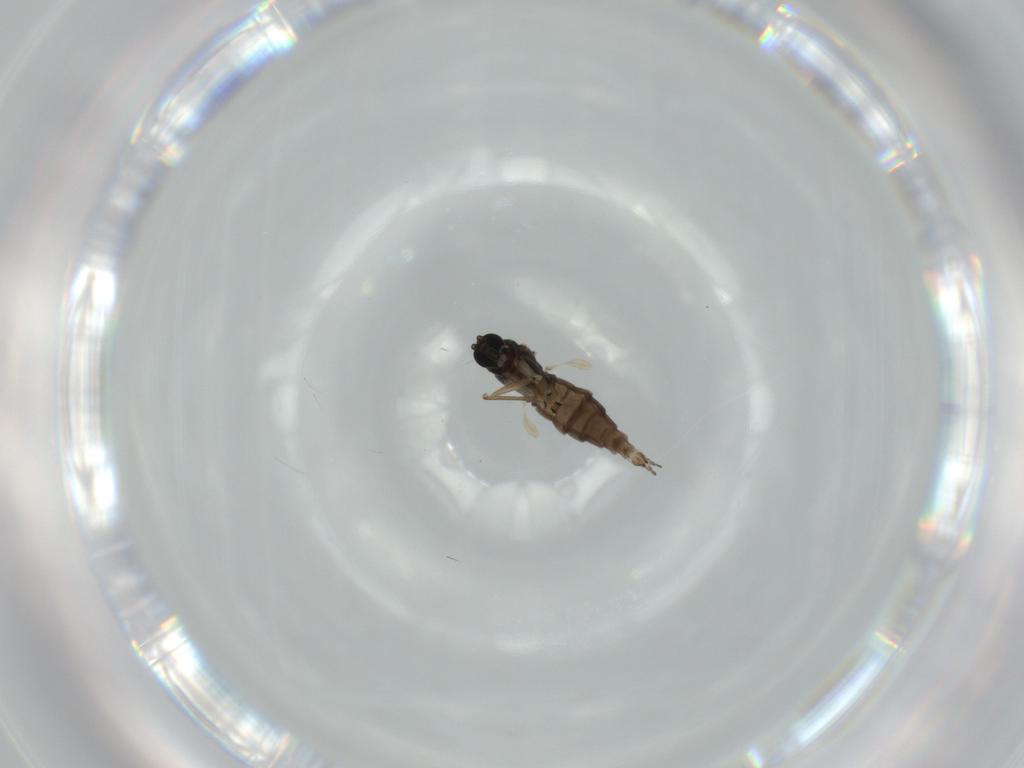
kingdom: Animalia
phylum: Arthropoda
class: Insecta
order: Diptera
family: Sciaridae
